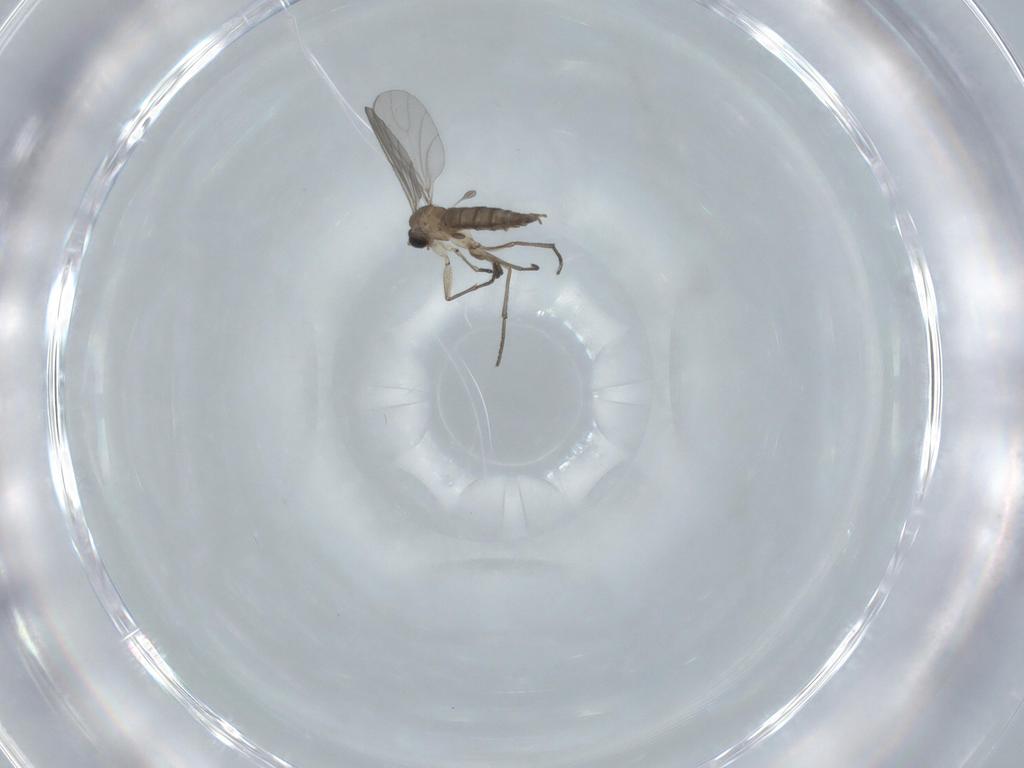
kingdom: Animalia
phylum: Arthropoda
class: Insecta
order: Diptera
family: Sciaridae
